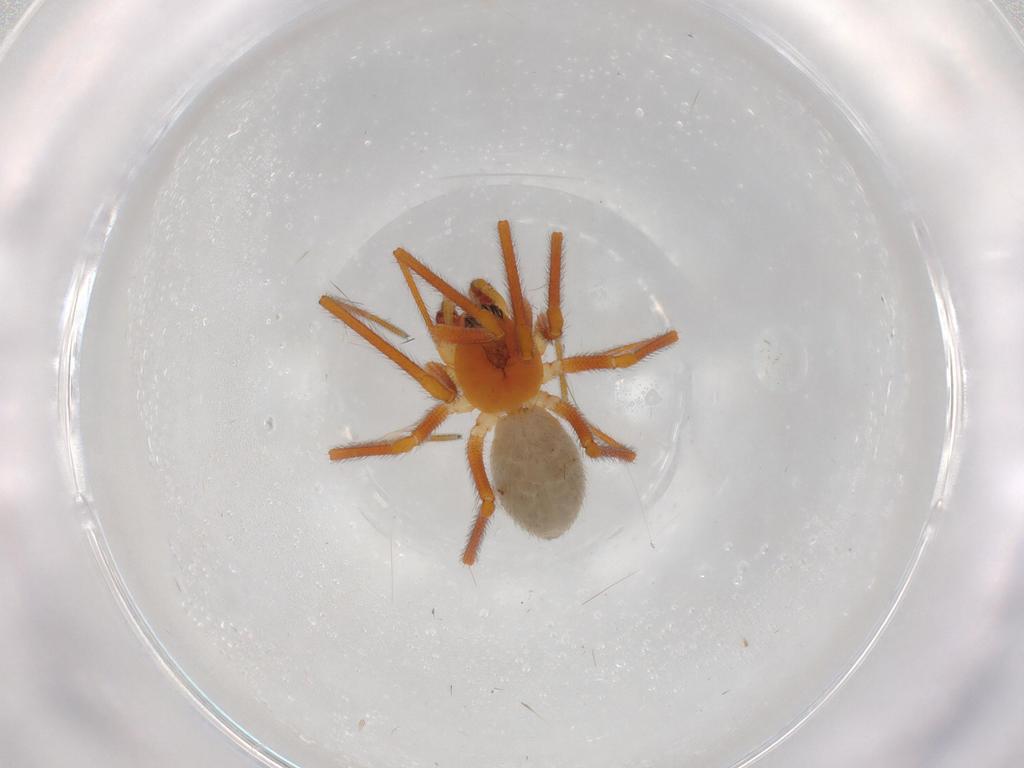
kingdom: Animalia
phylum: Arthropoda
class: Arachnida
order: Araneae
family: Linyphiidae
